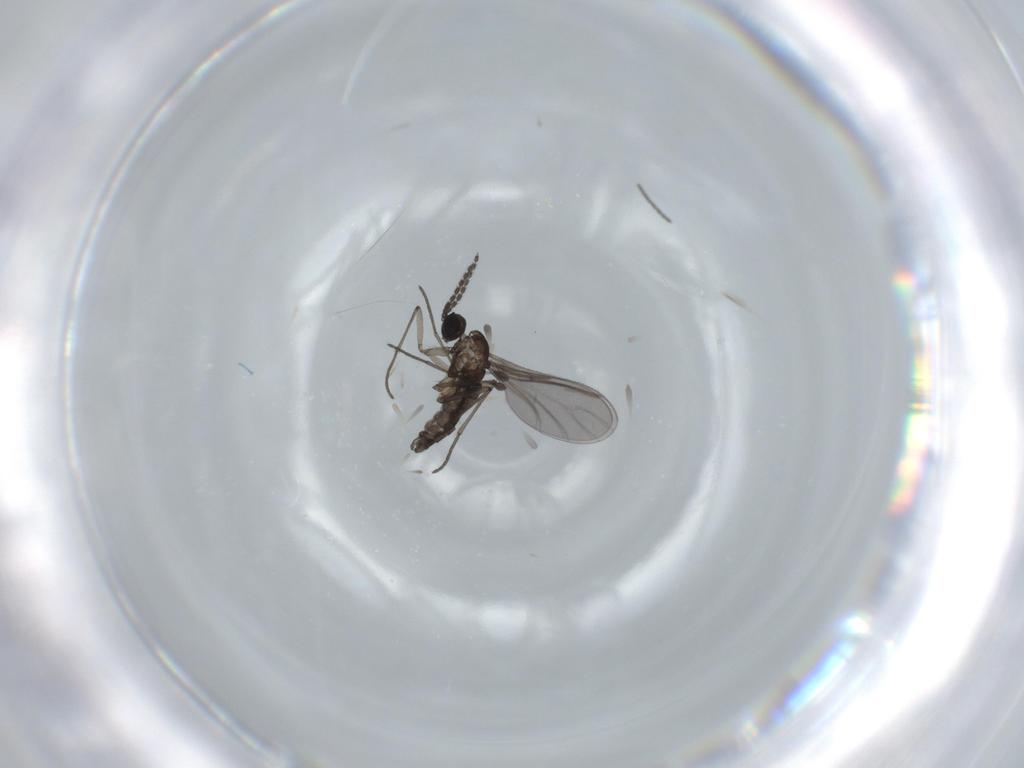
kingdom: Animalia
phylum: Arthropoda
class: Insecta
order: Diptera
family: Sciaridae
